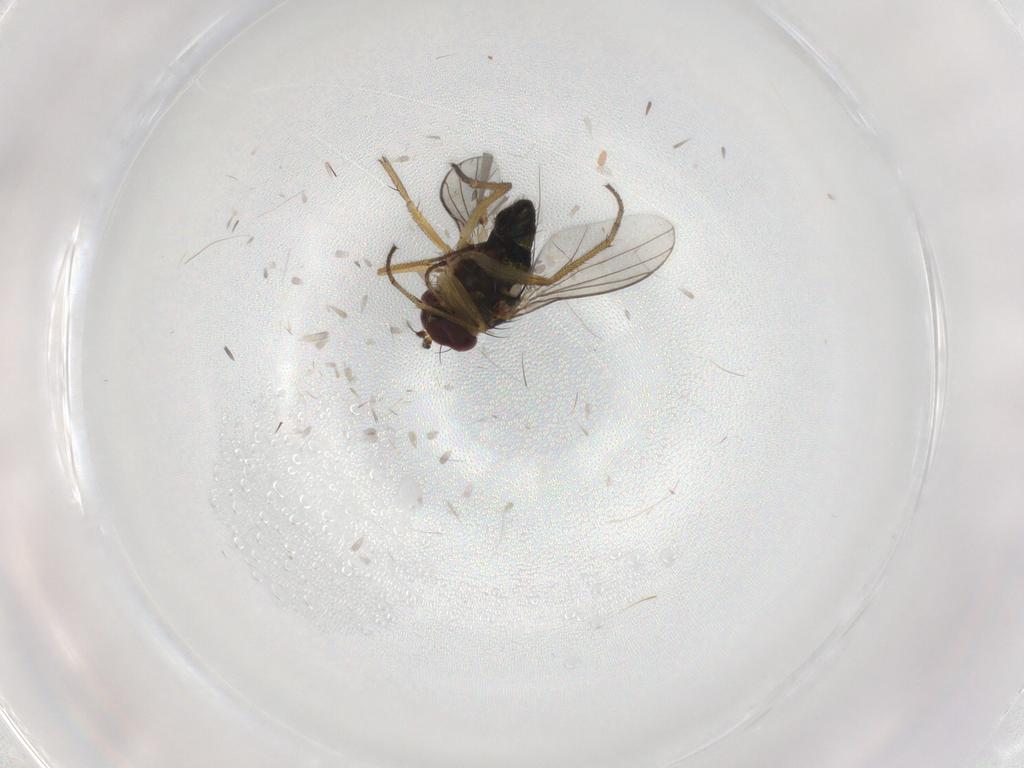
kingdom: Animalia
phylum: Arthropoda
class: Insecta
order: Diptera
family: Dolichopodidae
